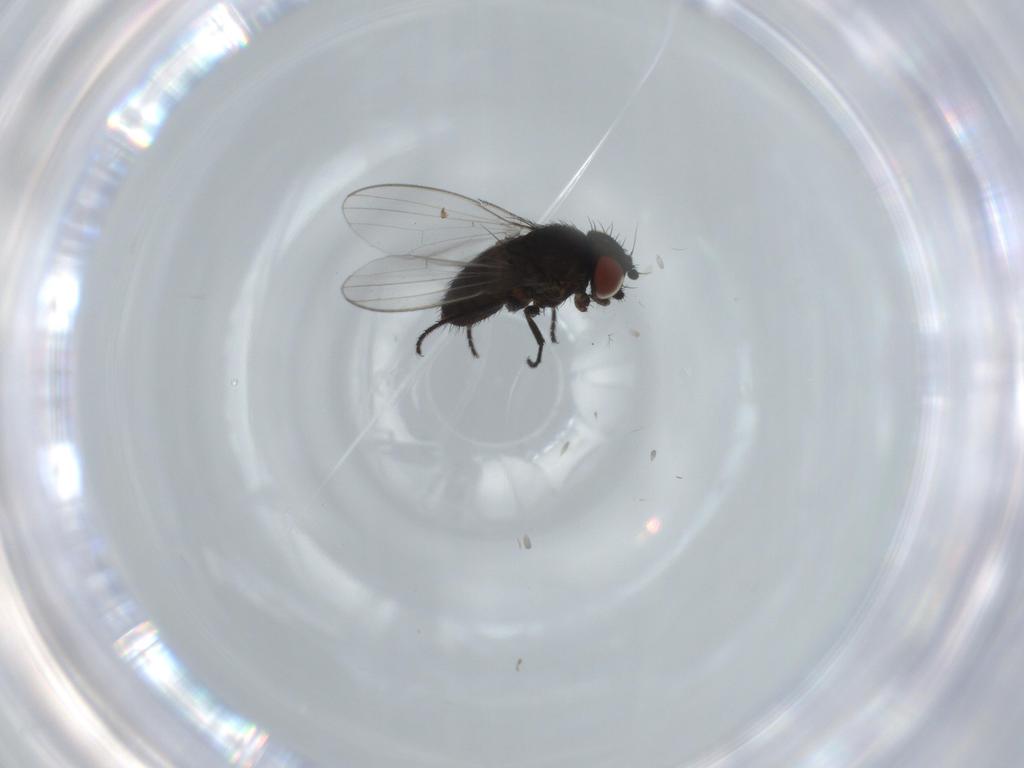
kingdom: Animalia
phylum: Arthropoda
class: Insecta
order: Diptera
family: Milichiidae
